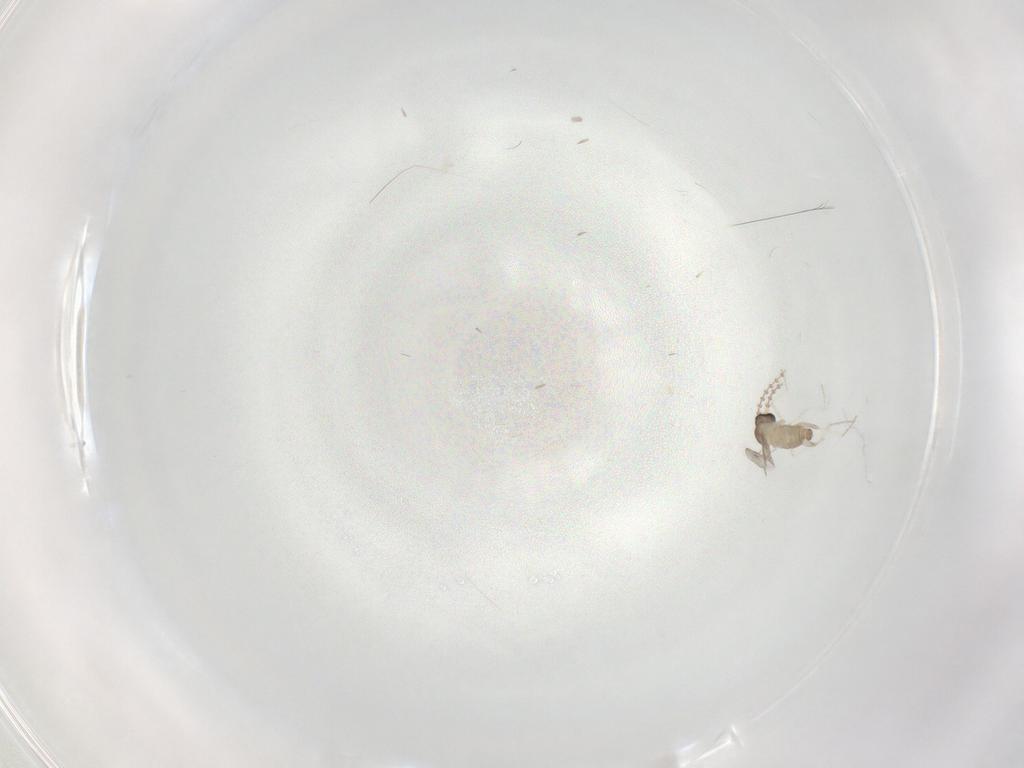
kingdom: Animalia
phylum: Arthropoda
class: Insecta
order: Diptera
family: Cecidomyiidae
